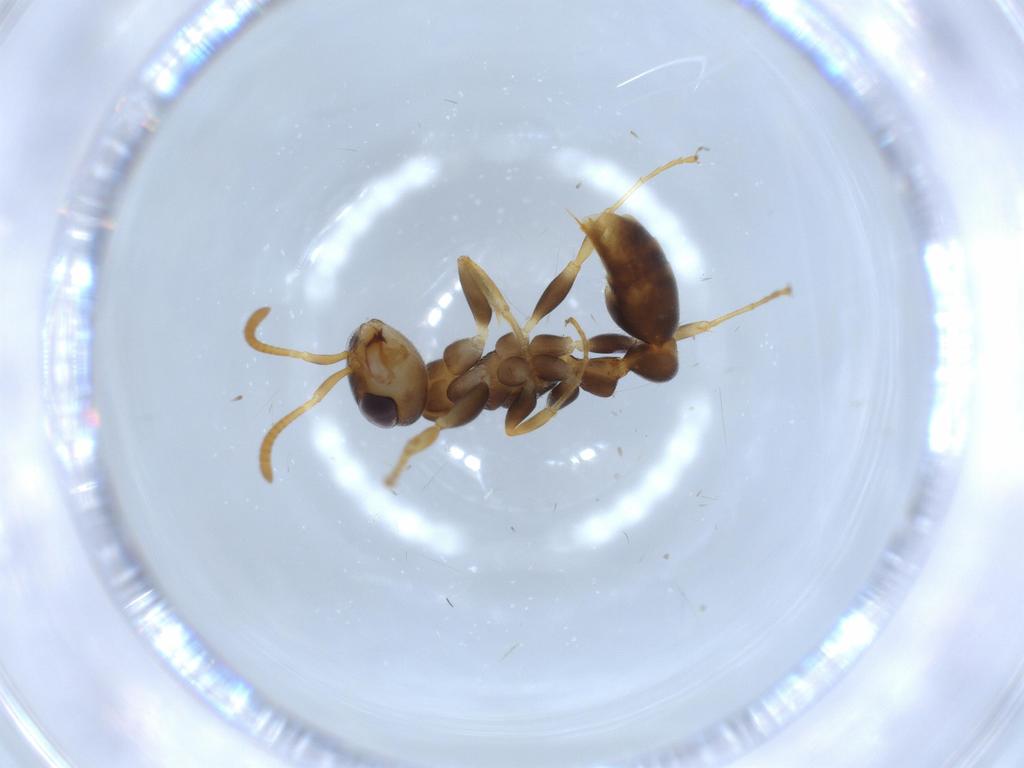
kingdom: Animalia
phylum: Arthropoda
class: Insecta
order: Hymenoptera
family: Formicidae
